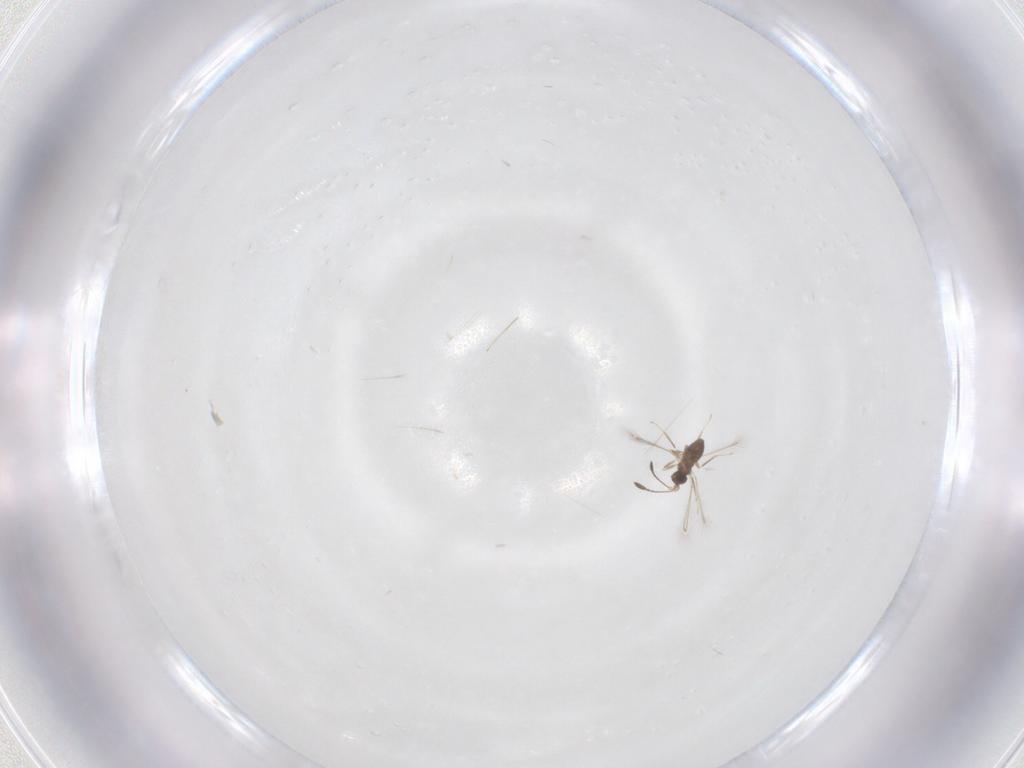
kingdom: Animalia
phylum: Arthropoda
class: Insecta
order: Hymenoptera
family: Mymaridae
